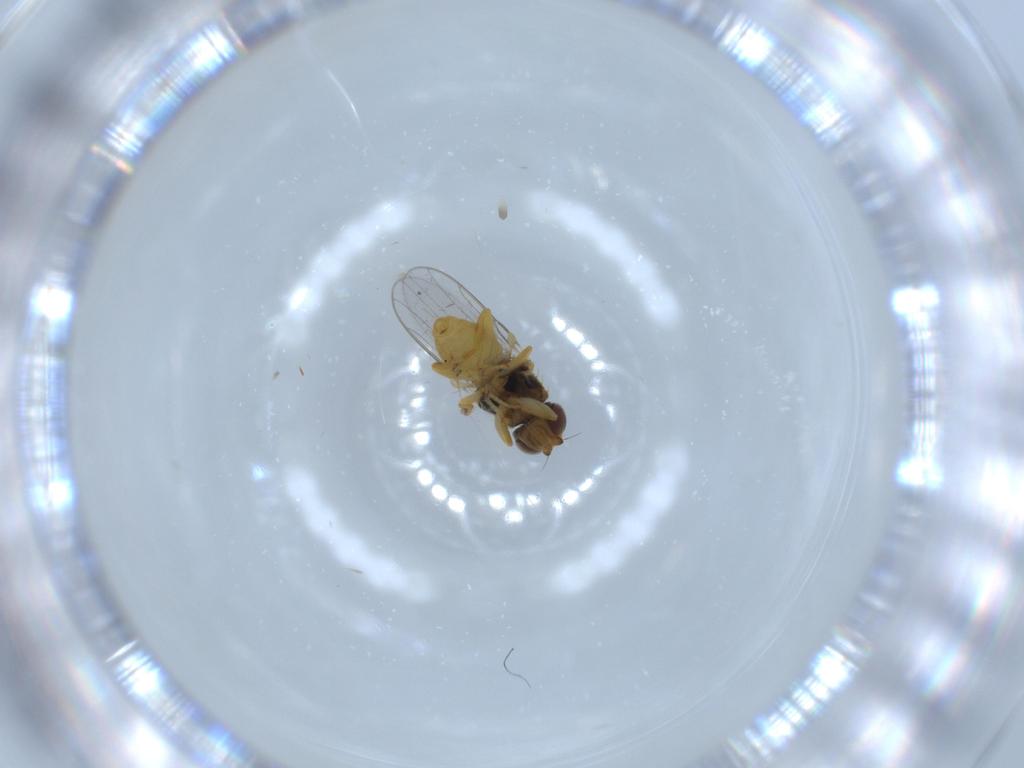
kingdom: Animalia
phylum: Arthropoda
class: Insecta
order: Diptera
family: Chloropidae
